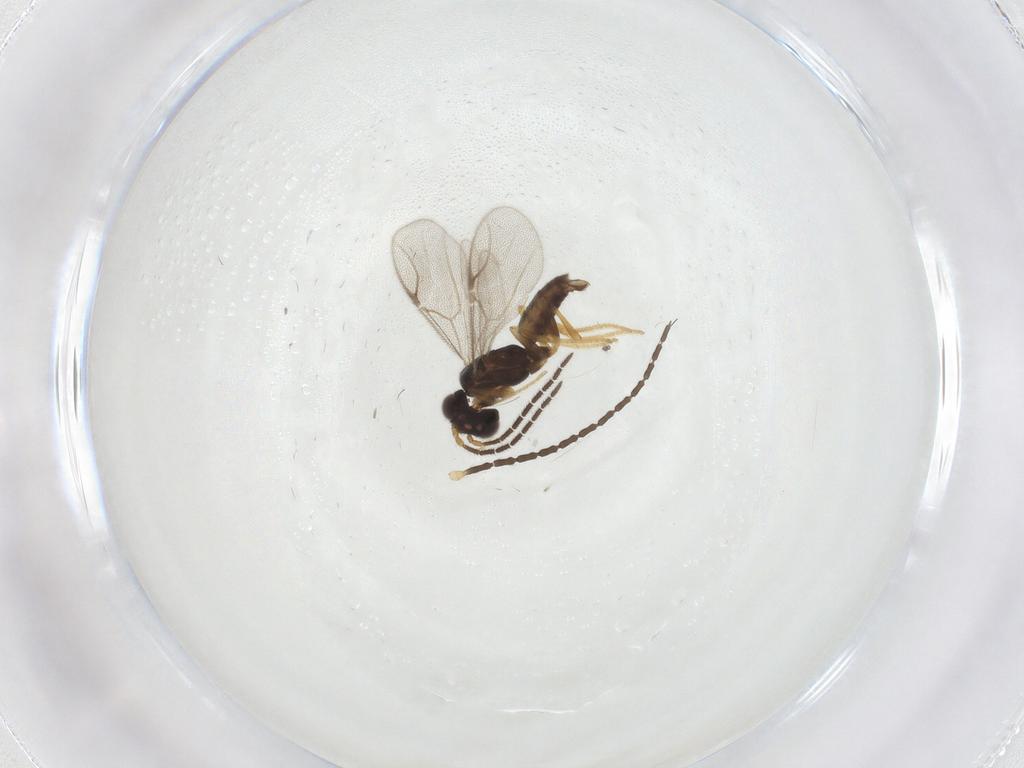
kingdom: Animalia
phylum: Arthropoda
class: Insecta
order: Hymenoptera
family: Dryinidae
